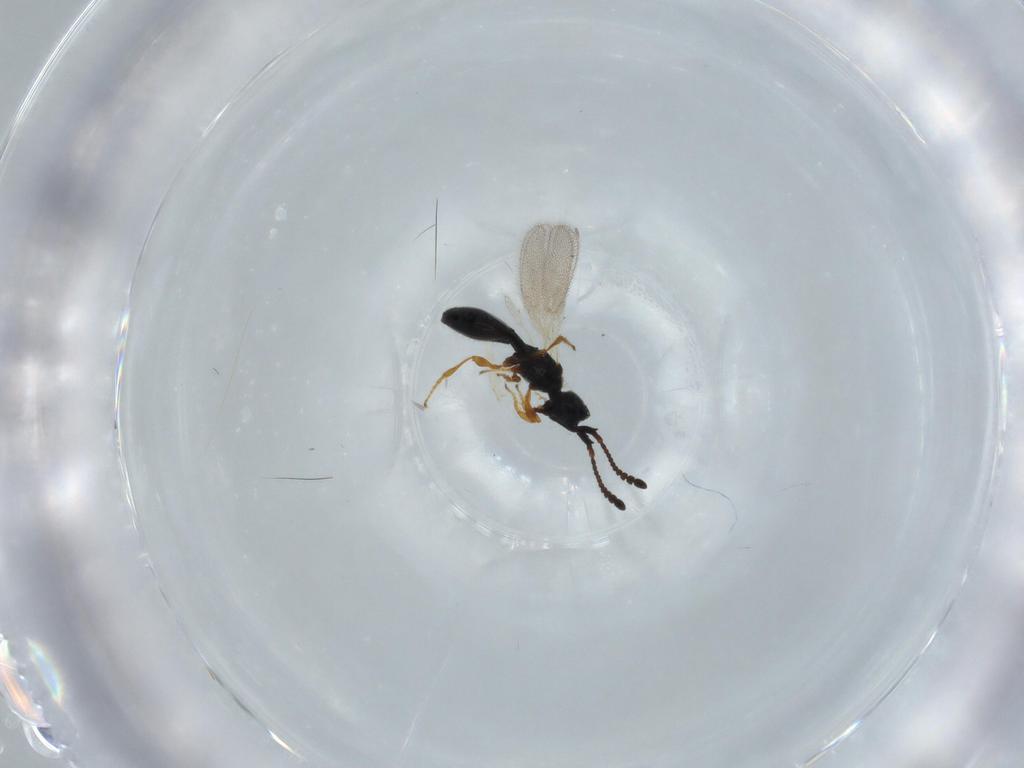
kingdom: Animalia
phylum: Arthropoda
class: Insecta
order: Hymenoptera
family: Diapriidae
